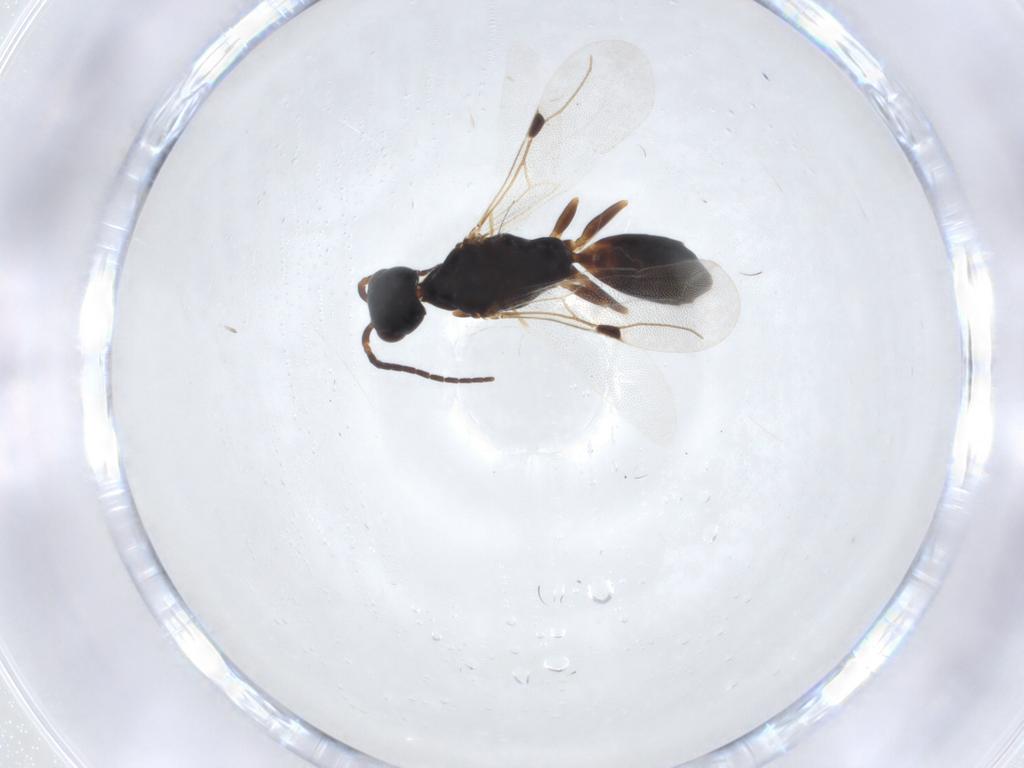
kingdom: Animalia
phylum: Arthropoda
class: Insecta
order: Hymenoptera
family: Bethylidae
